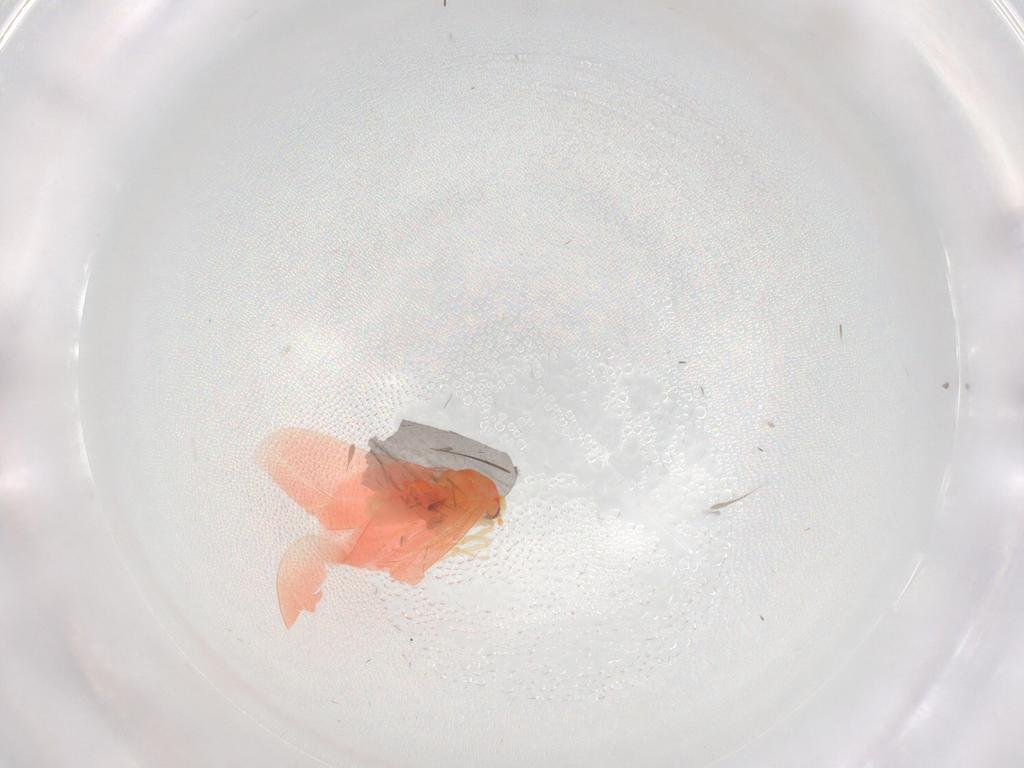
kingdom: Animalia
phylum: Arthropoda
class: Insecta
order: Hemiptera
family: Aleyrodidae
